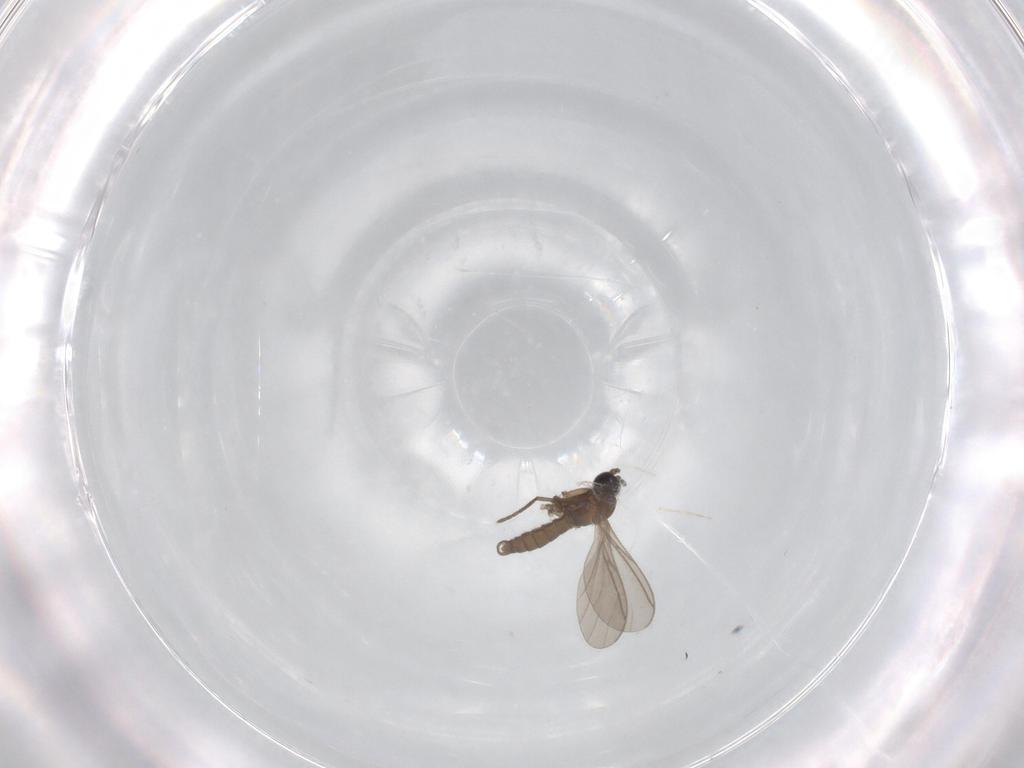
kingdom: Animalia
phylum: Arthropoda
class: Insecta
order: Diptera
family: Sciaridae
